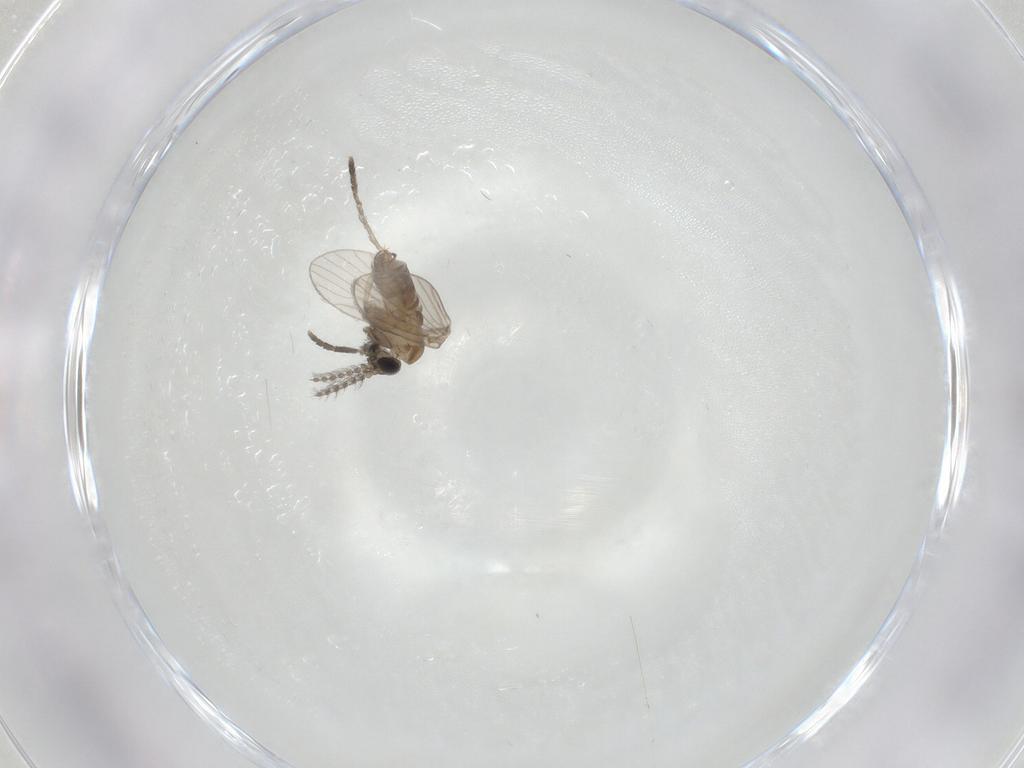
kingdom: Animalia
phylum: Arthropoda
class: Insecta
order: Diptera
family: Psychodidae
